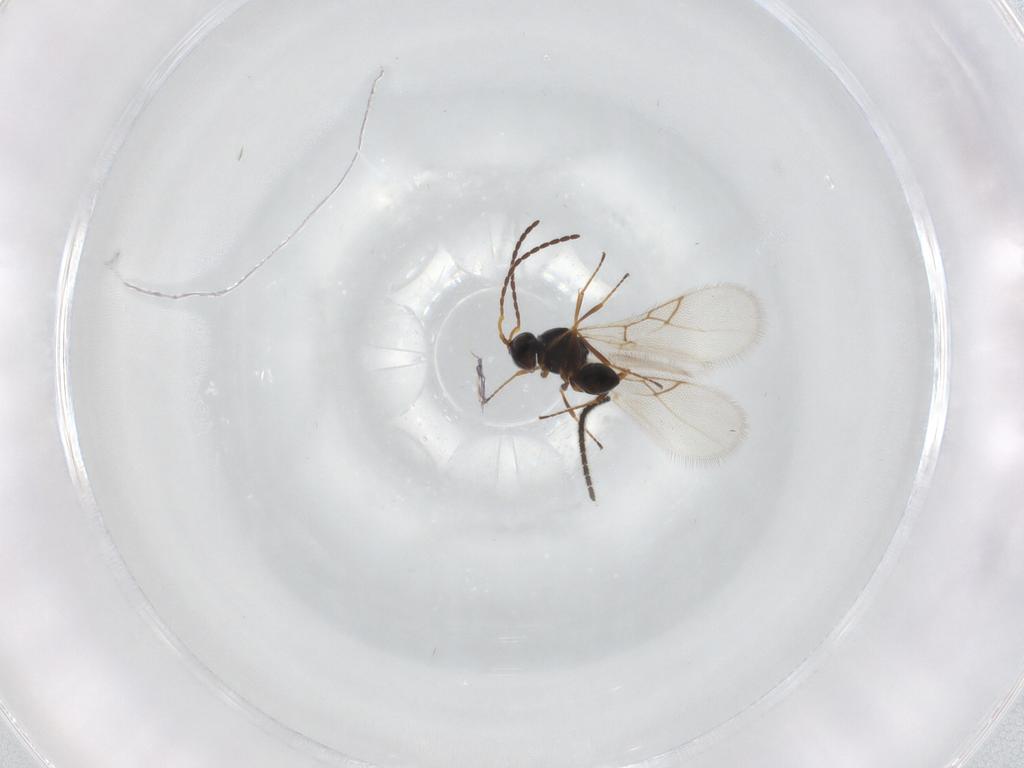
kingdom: Animalia
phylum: Arthropoda
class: Insecta
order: Hymenoptera
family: Figitidae
